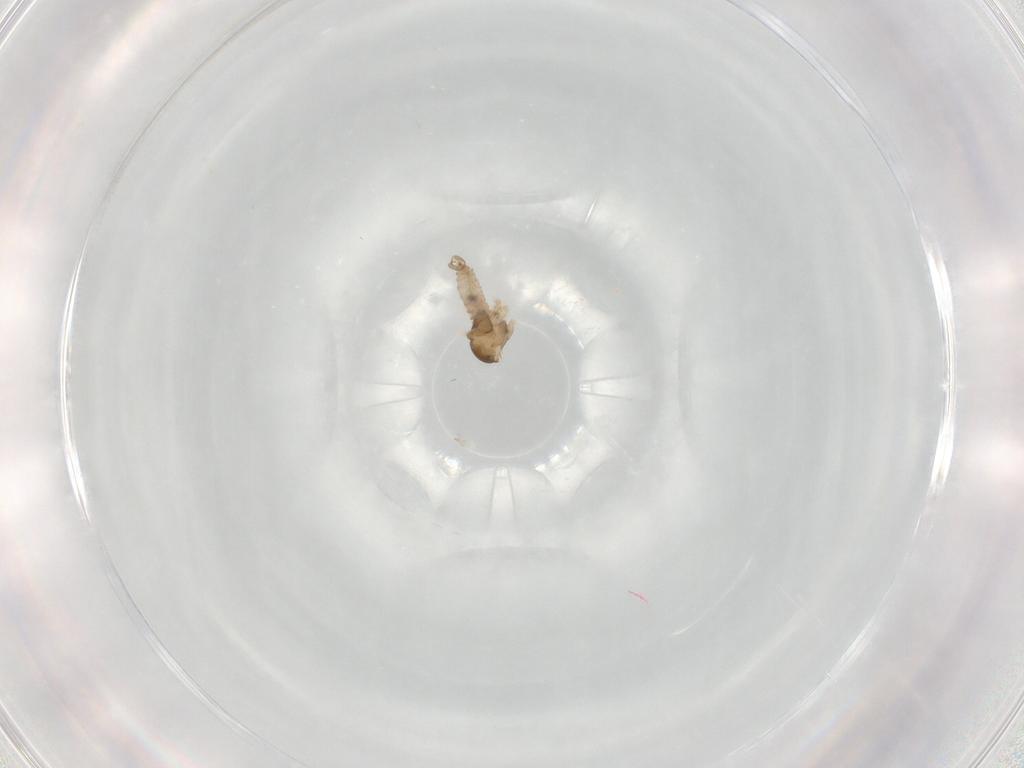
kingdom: Animalia
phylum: Arthropoda
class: Insecta
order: Diptera
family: Cecidomyiidae
